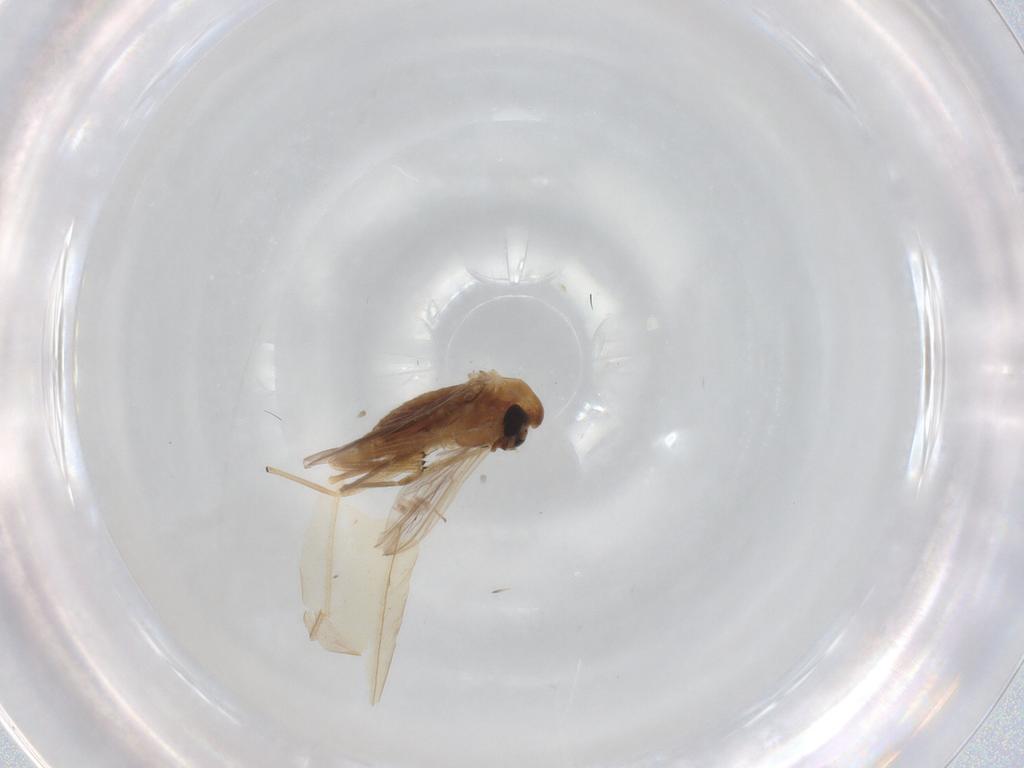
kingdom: Animalia
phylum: Arthropoda
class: Insecta
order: Diptera
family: Chironomidae
